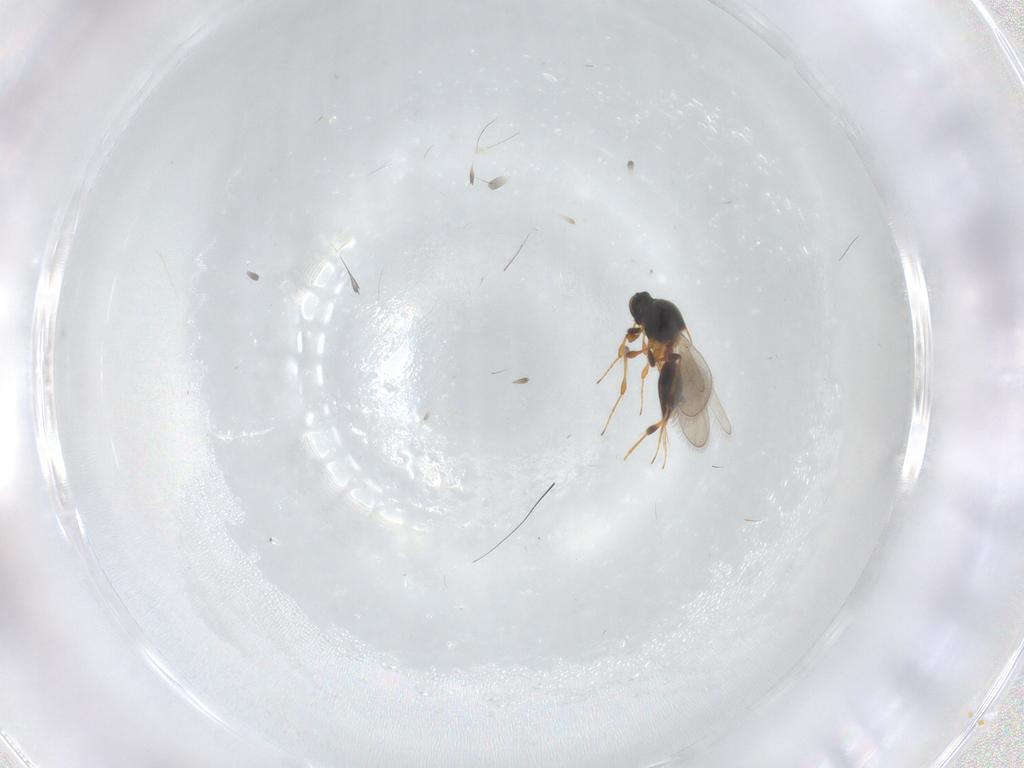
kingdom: Animalia
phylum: Arthropoda
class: Insecta
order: Hymenoptera
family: Platygastridae
